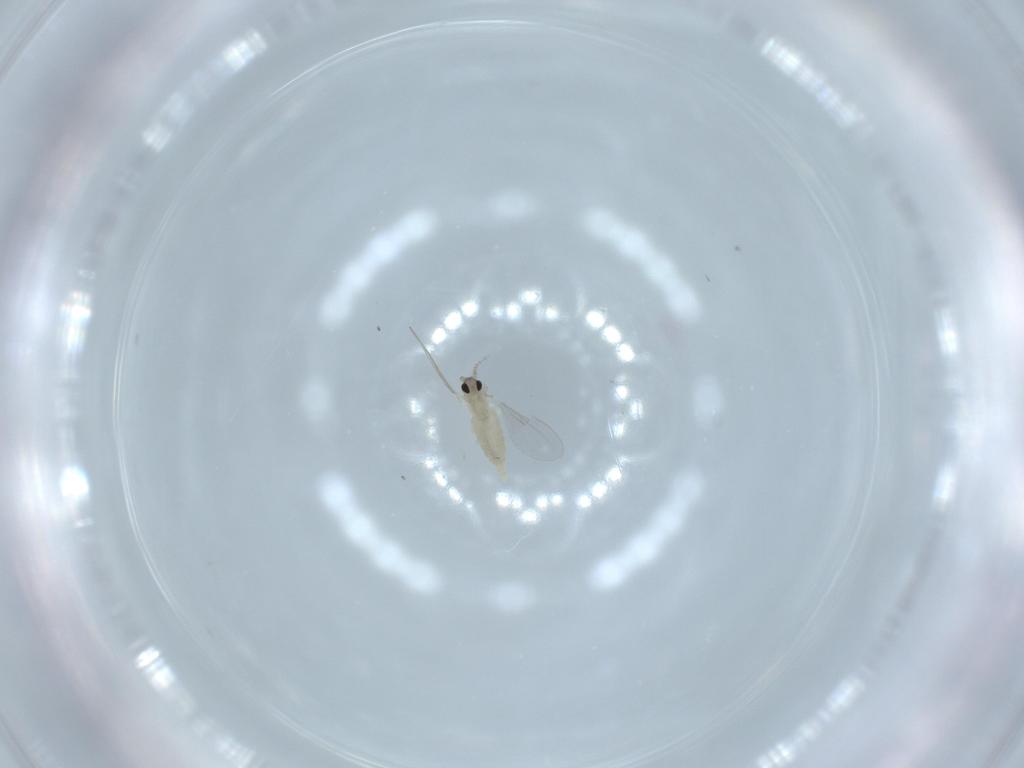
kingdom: Animalia
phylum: Arthropoda
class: Insecta
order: Diptera
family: Cecidomyiidae
